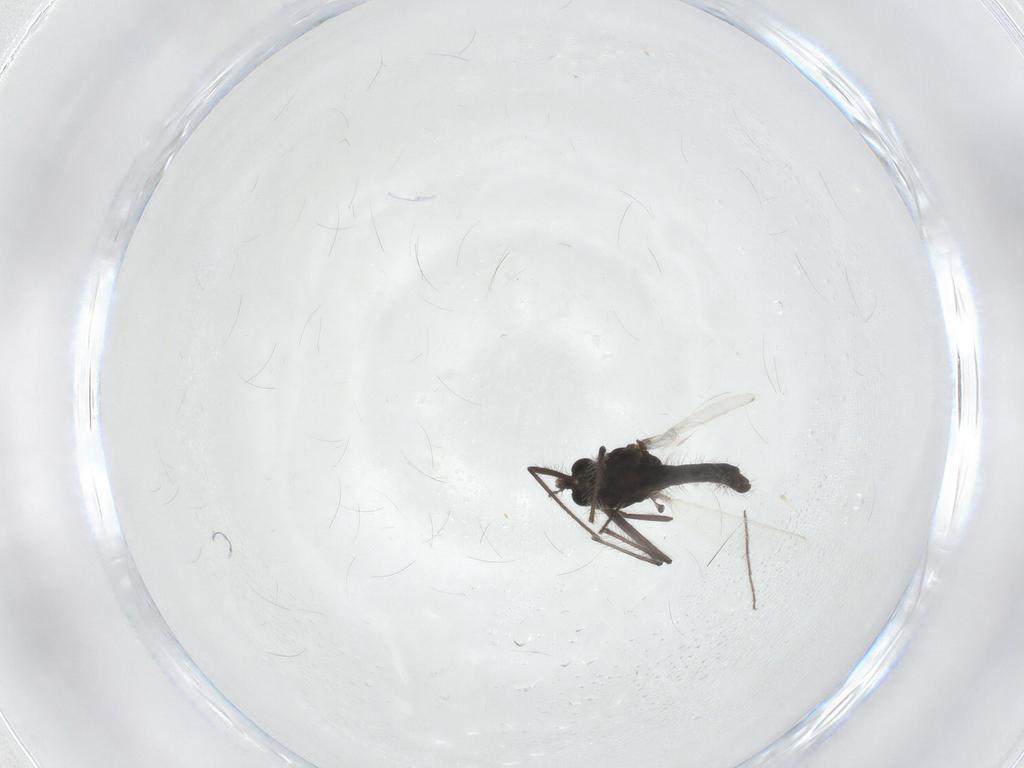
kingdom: Animalia
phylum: Arthropoda
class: Insecta
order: Diptera
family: Chironomidae
